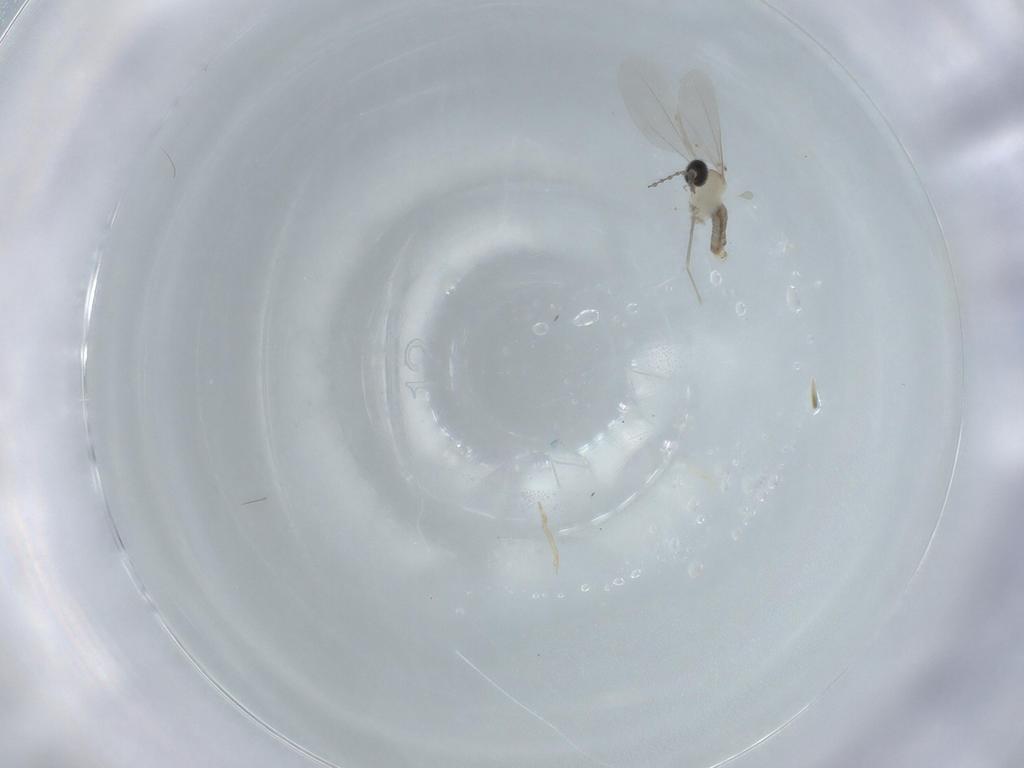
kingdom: Animalia
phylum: Arthropoda
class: Insecta
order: Diptera
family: Cecidomyiidae
